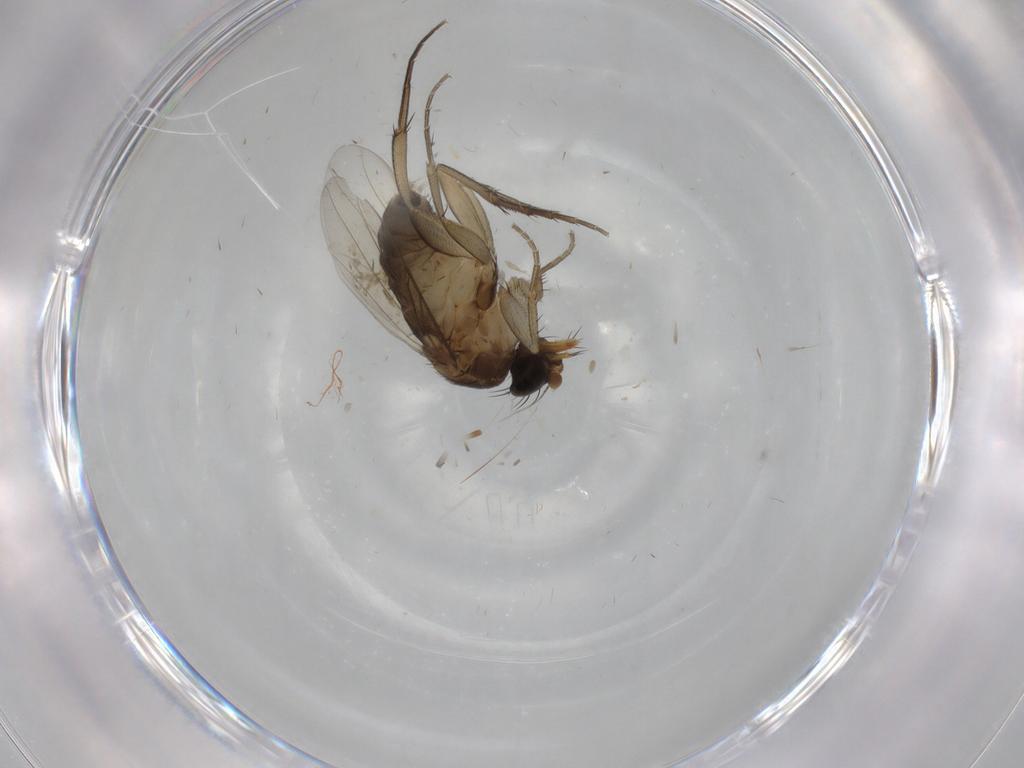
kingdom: Animalia
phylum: Arthropoda
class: Insecta
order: Diptera
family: Phoridae
